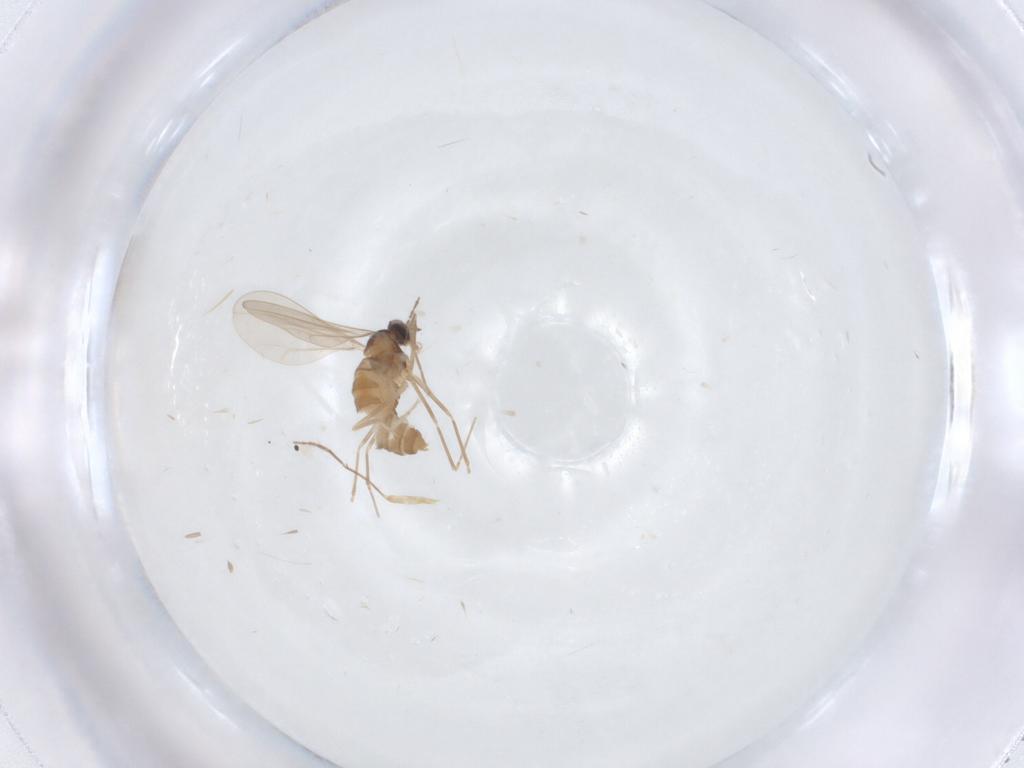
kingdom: Animalia
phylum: Arthropoda
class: Insecta
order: Diptera
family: Cecidomyiidae
